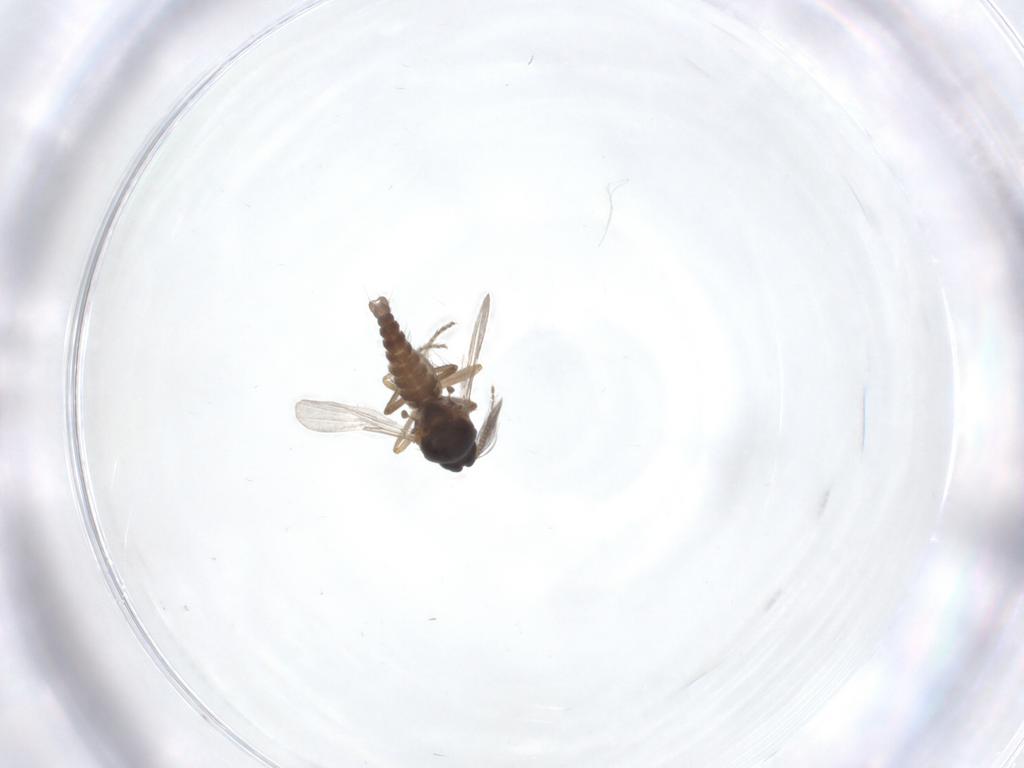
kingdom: Animalia
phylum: Arthropoda
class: Insecta
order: Diptera
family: Ceratopogonidae
